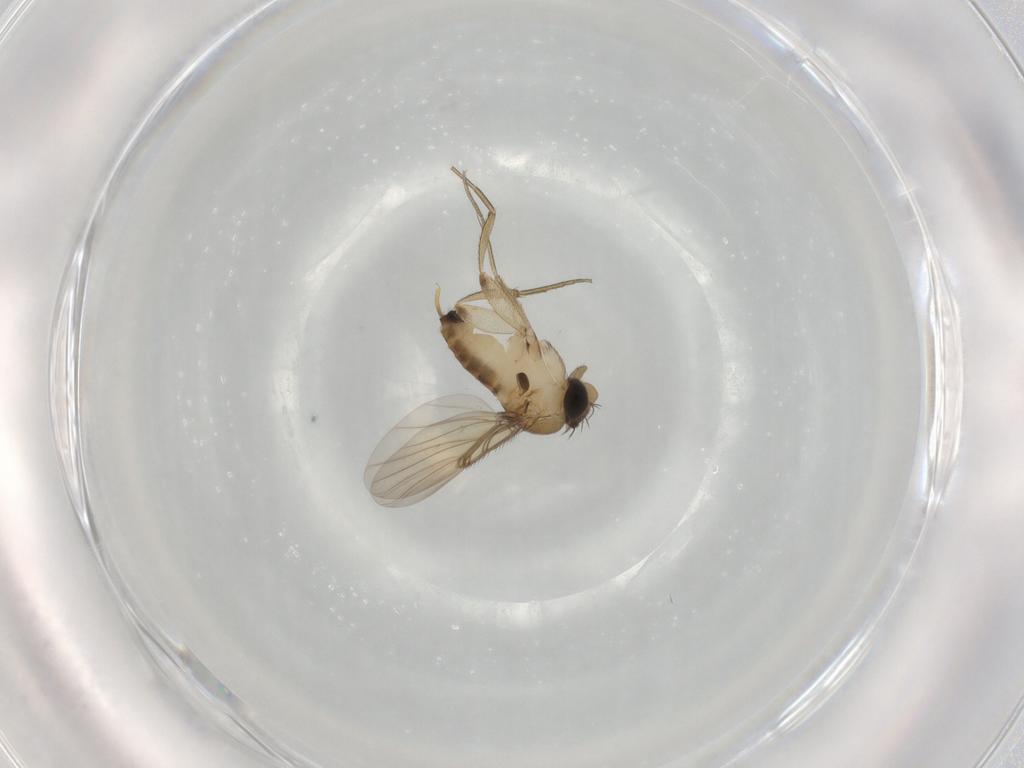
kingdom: Animalia
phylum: Arthropoda
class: Insecta
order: Diptera
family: Phoridae
